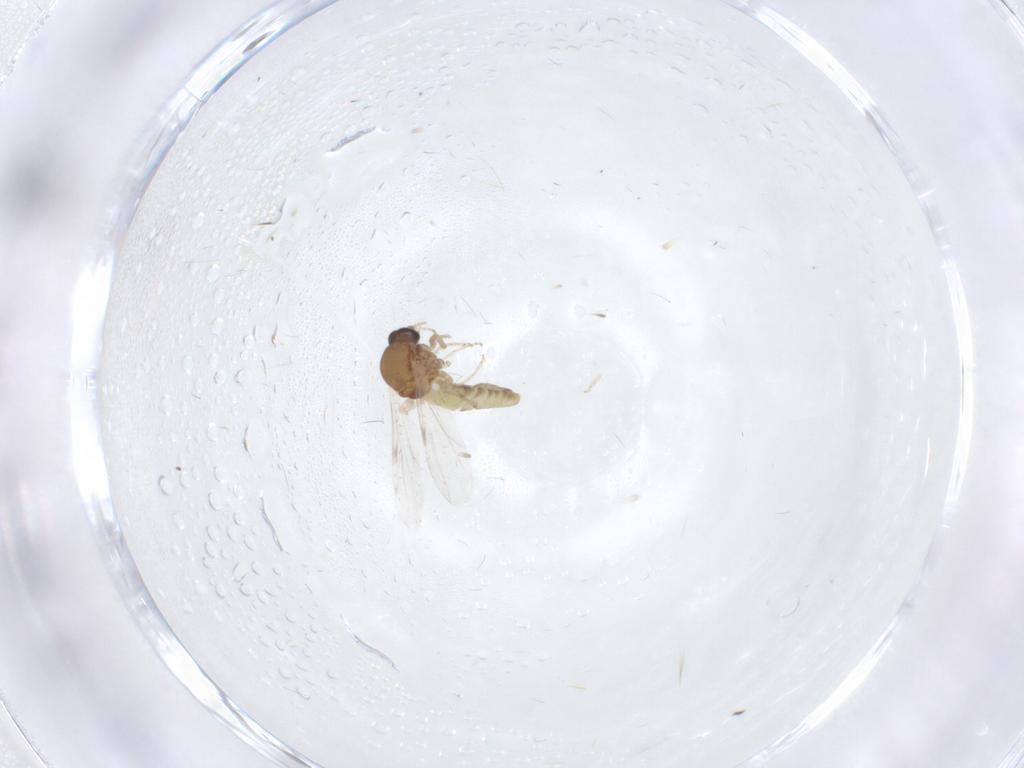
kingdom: Animalia
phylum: Arthropoda
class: Insecta
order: Diptera
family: Ceratopogonidae
